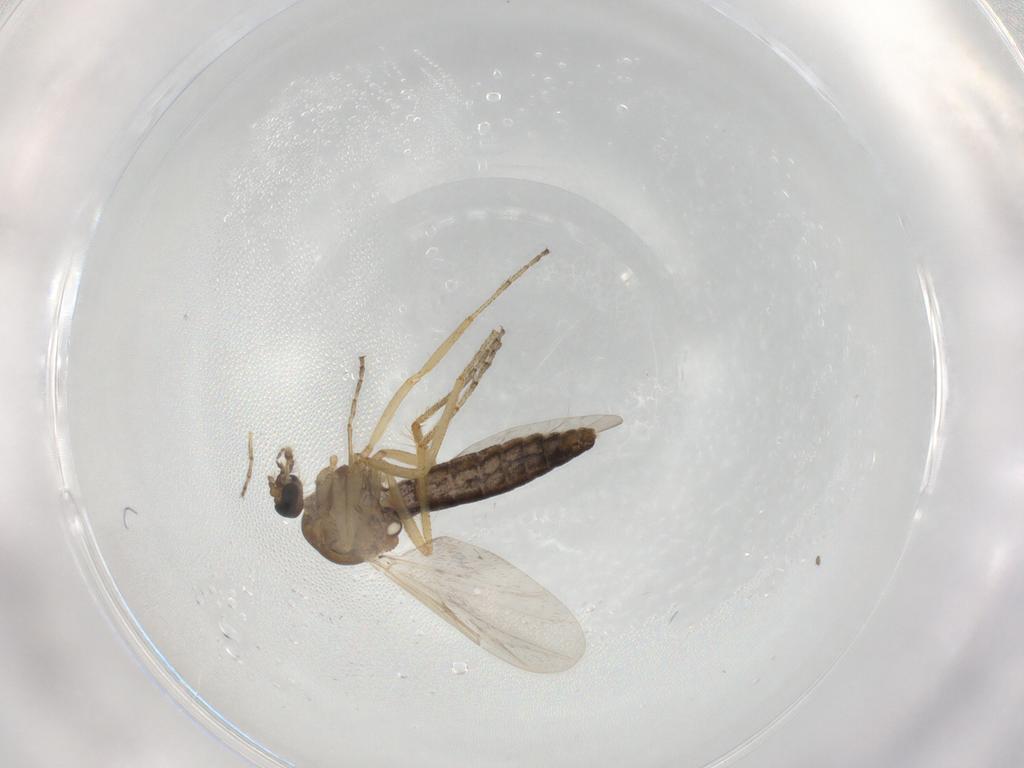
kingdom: Animalia
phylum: Arthropoda
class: Insecta
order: Diptera
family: Ceratopogonidae
